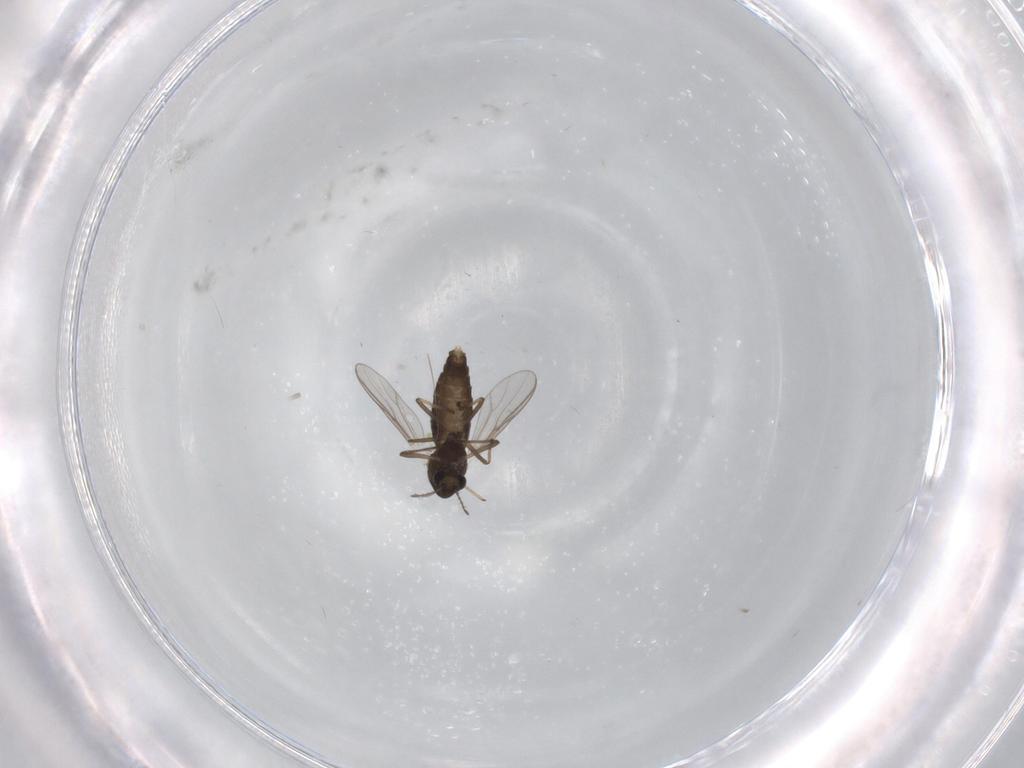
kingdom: Animalia
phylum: Arthropoda
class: Insecta
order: Diptera
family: Chironomidae
